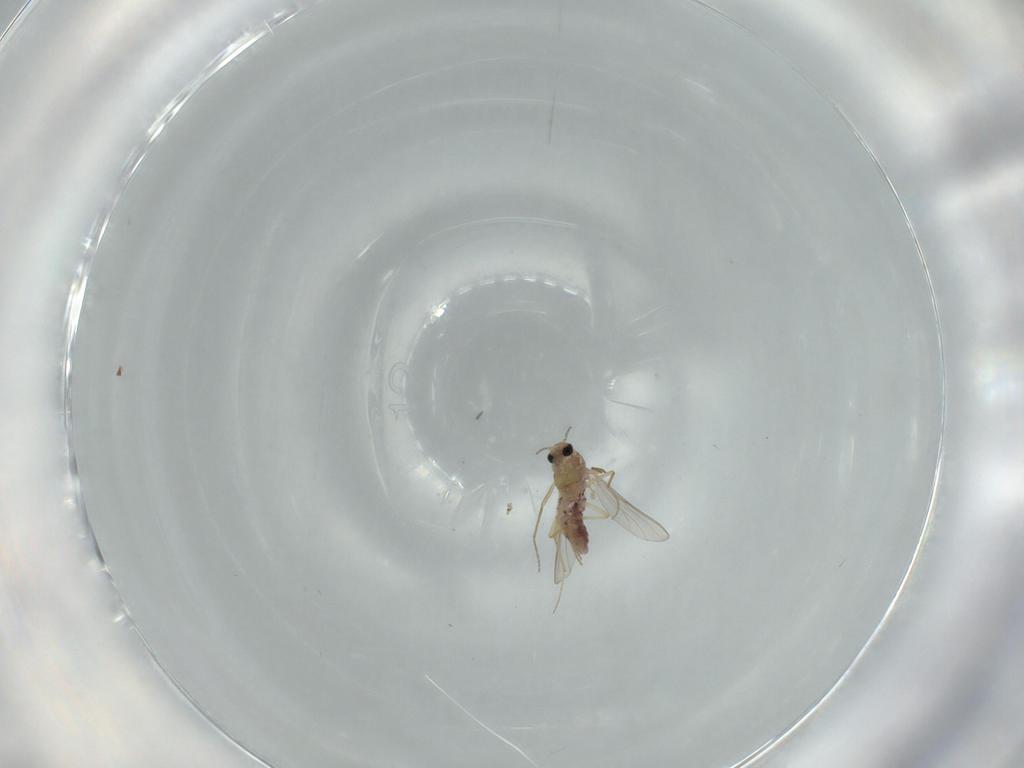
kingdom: Animalia
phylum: Arthropoda
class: Insecta
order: Diptera
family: Chironomidae
